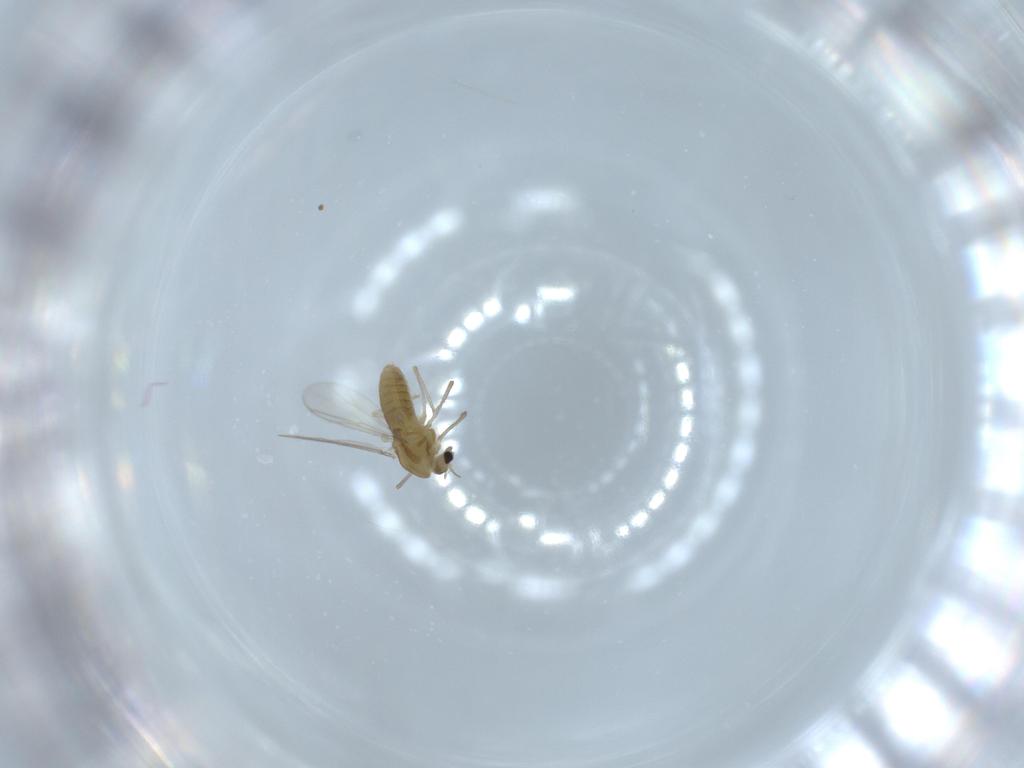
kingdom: Animalia
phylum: Arthropoda
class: Insecta
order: Diptera
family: Chironomidae
